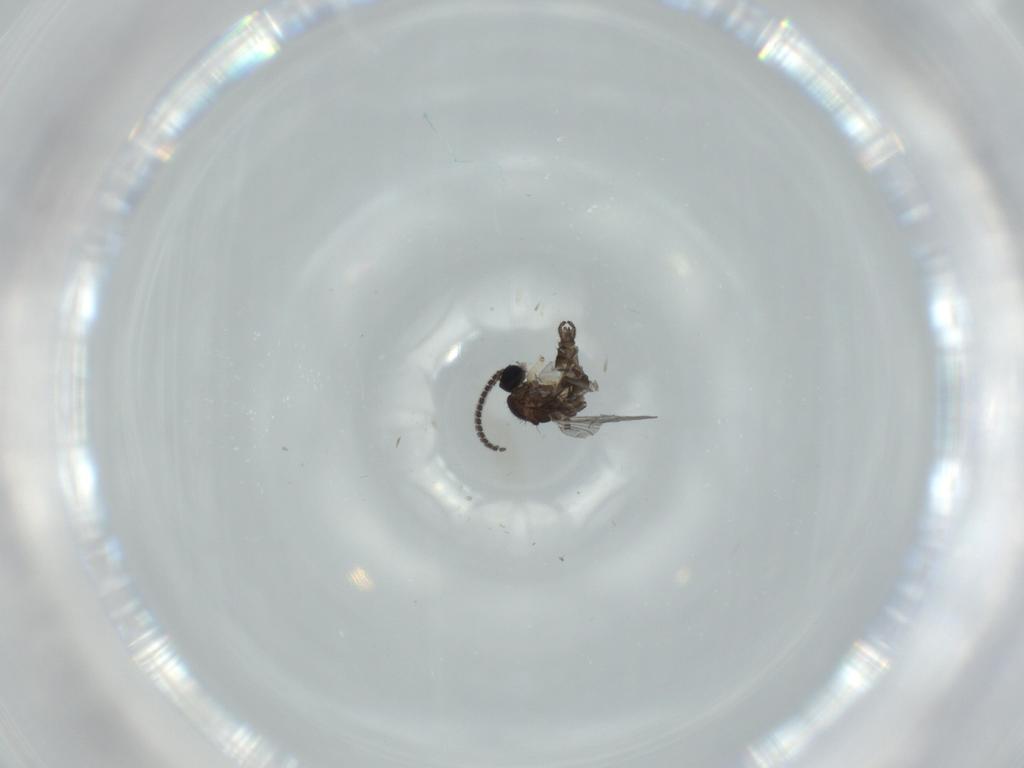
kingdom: Animalia
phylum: Arthropoda
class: Insecta
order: Diptera
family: Sciaridae
